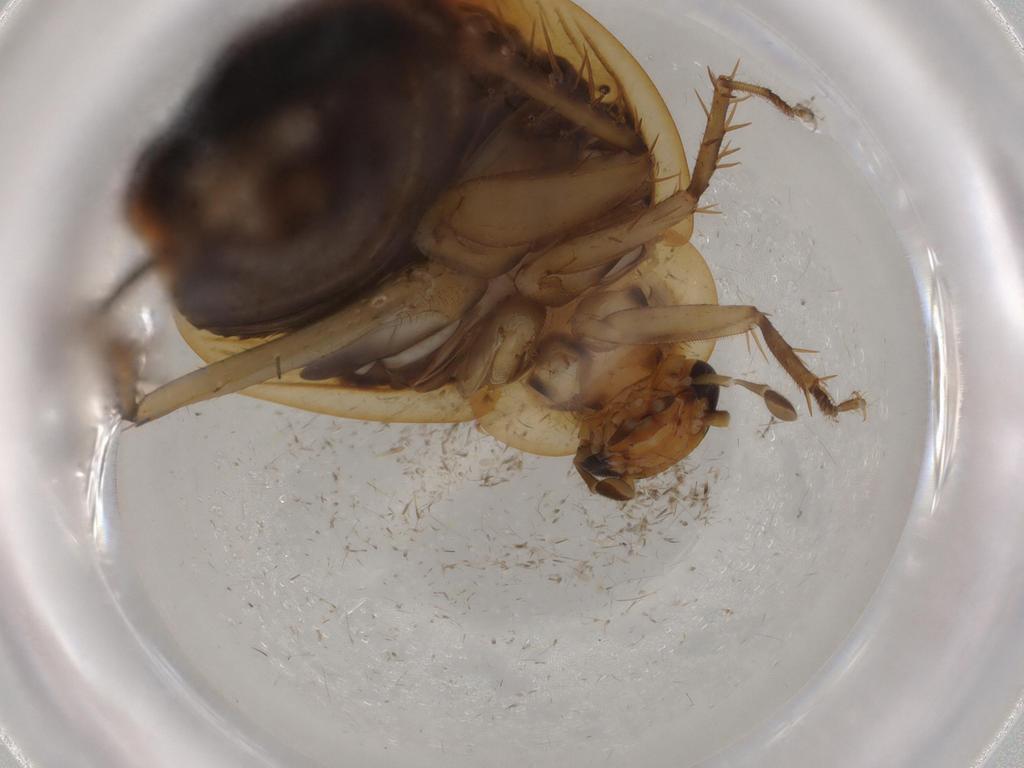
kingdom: Animalia
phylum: Arthropoda
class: Insecta
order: Blattodea
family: Ectobiidae
